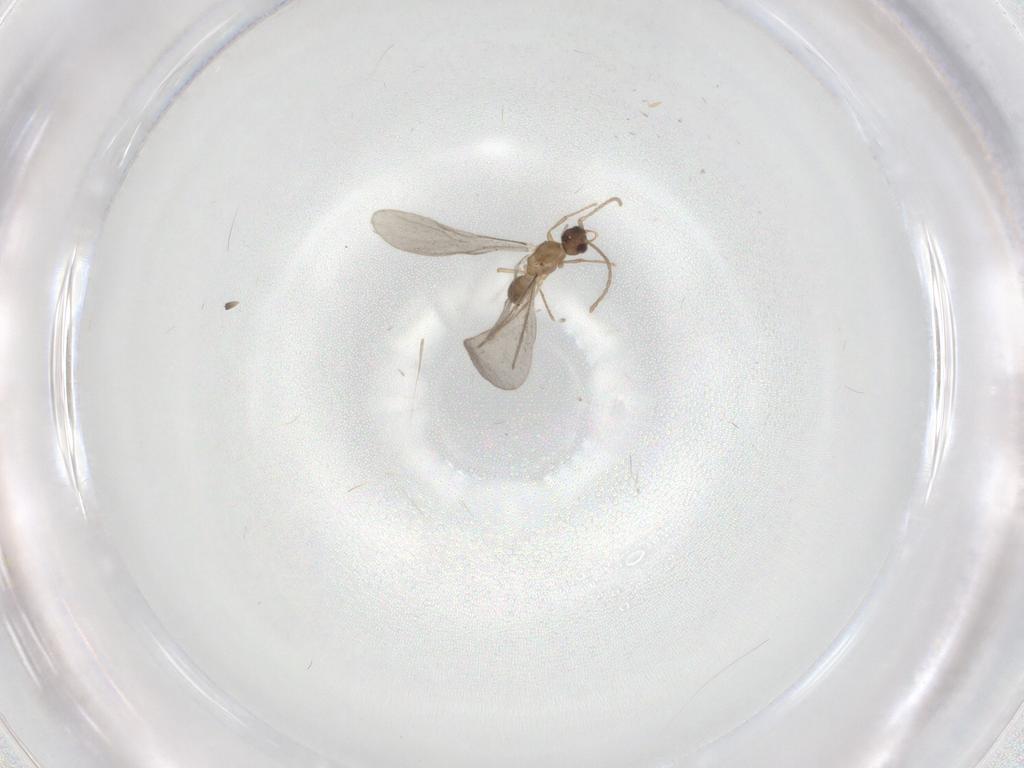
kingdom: Animalia
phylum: Arthropoda
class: Insecta
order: Hymenoptera
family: Formicidae
